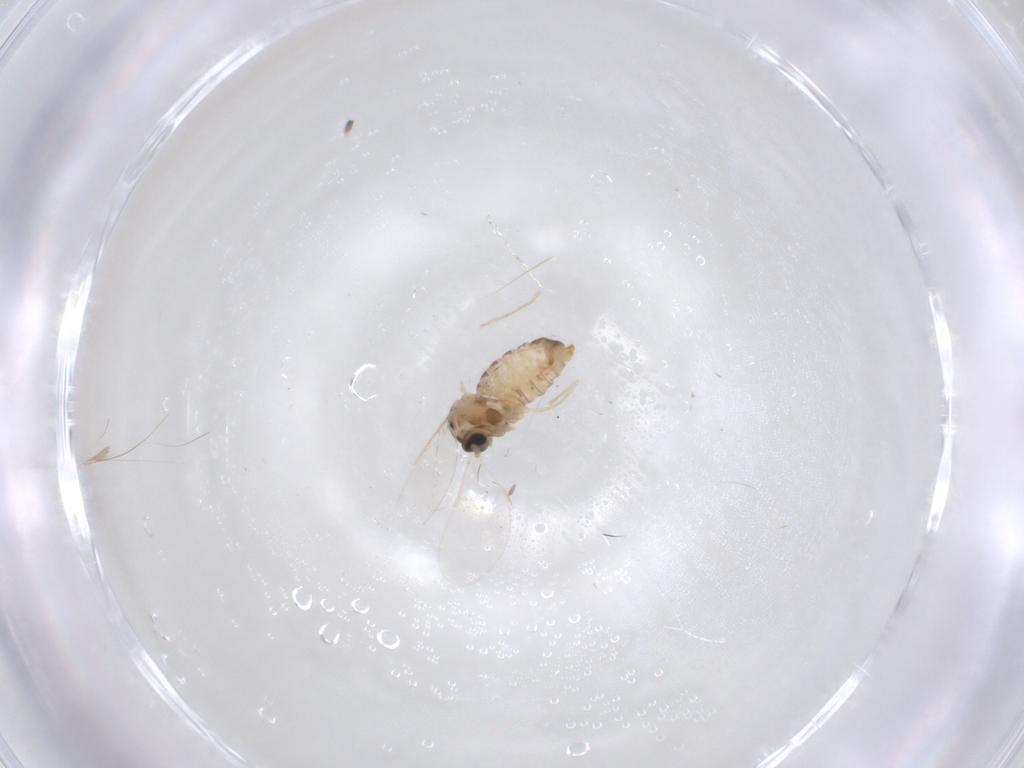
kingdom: Animalia
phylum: Arthropoda
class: Insecta
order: Diptera
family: Cecidomyiidae
